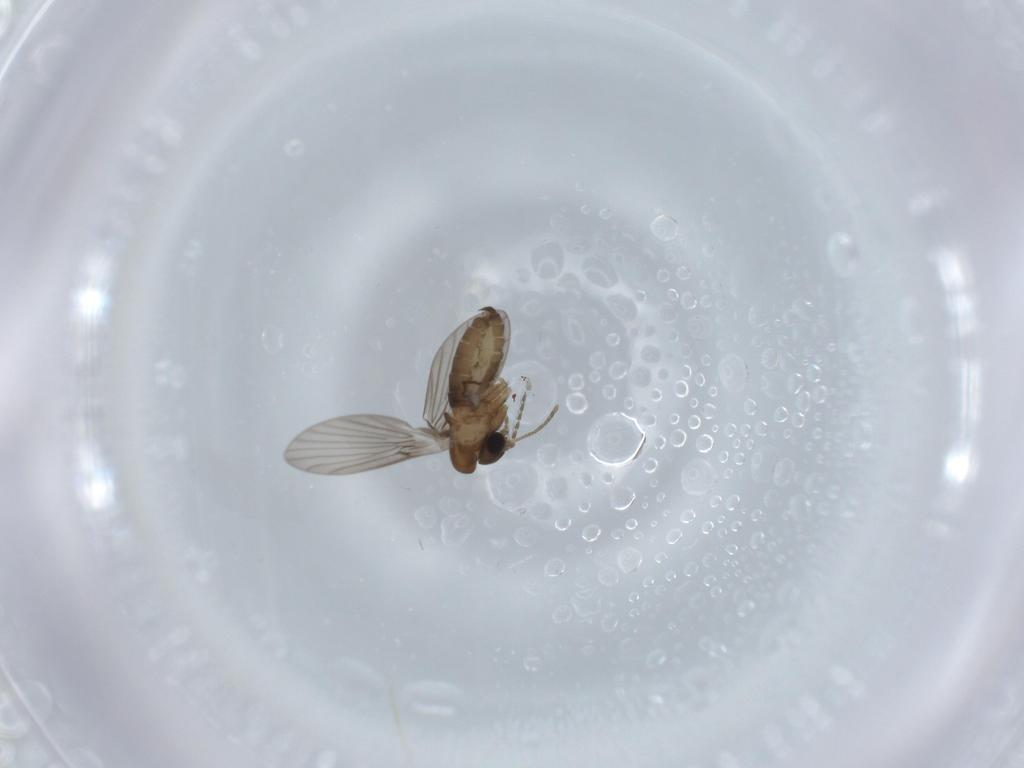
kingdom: Animalia
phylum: Arthropoda
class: Insecta
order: Diptera
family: Psychodidae
